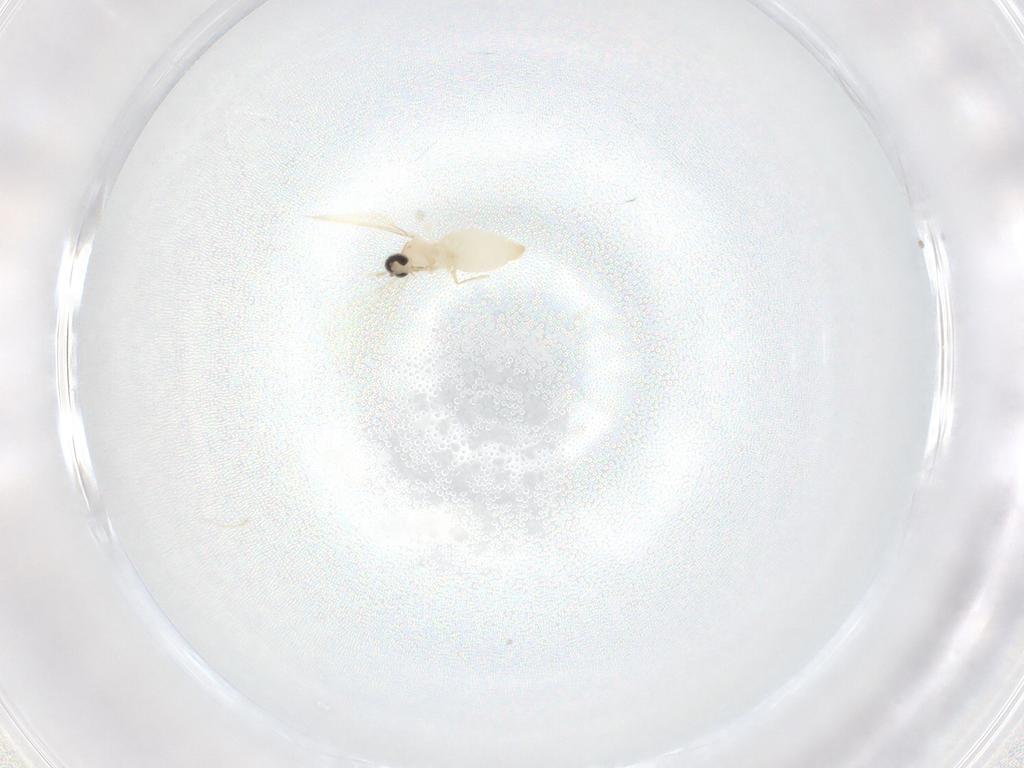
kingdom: Animalia
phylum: Arthropoda
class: Insecta
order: Diptera
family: Cecidomyiidae
